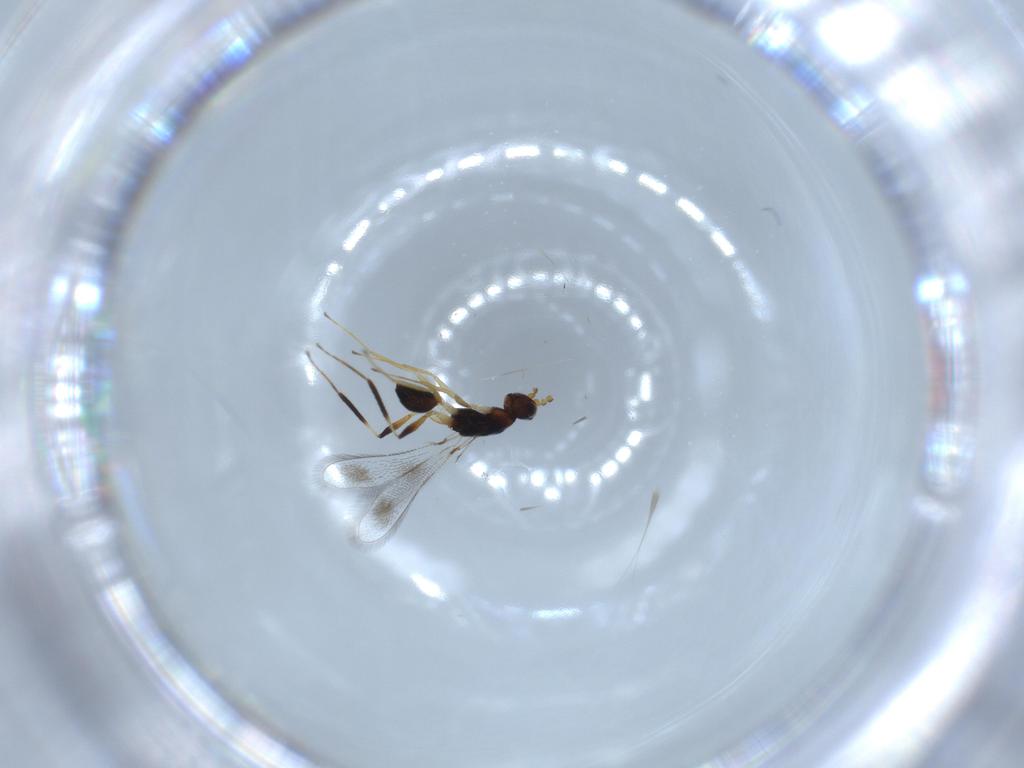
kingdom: Animalia
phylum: Arthropoda
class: Insecta
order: Hymenoptera
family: Mymaridae
